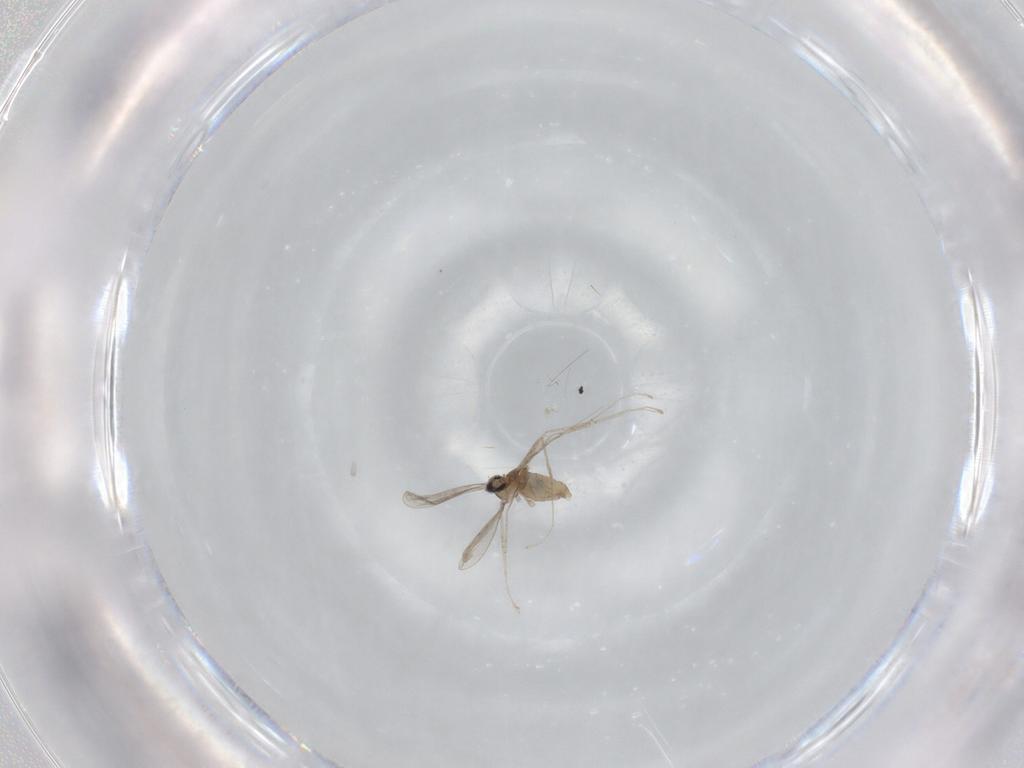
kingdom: Animalia
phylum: Arthropoda
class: Insecta
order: Diptera
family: Cecidomyiidae
